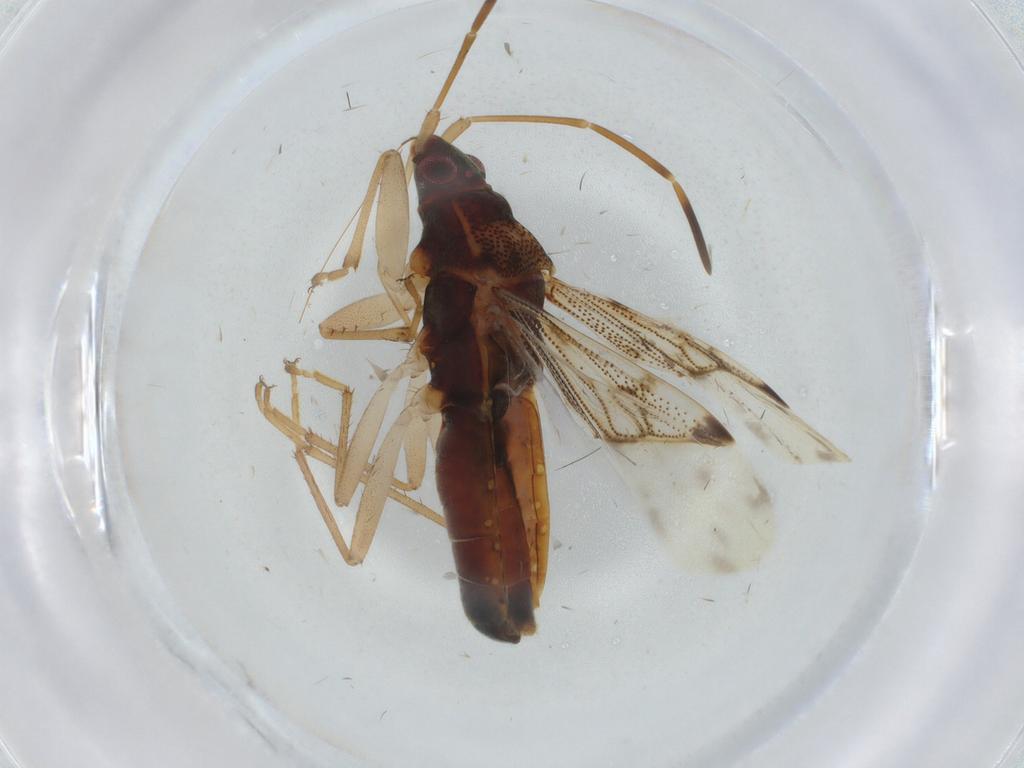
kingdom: Animalia
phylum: Arthropoda
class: Insecta
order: Hemiptera
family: Rhyparochromidae
